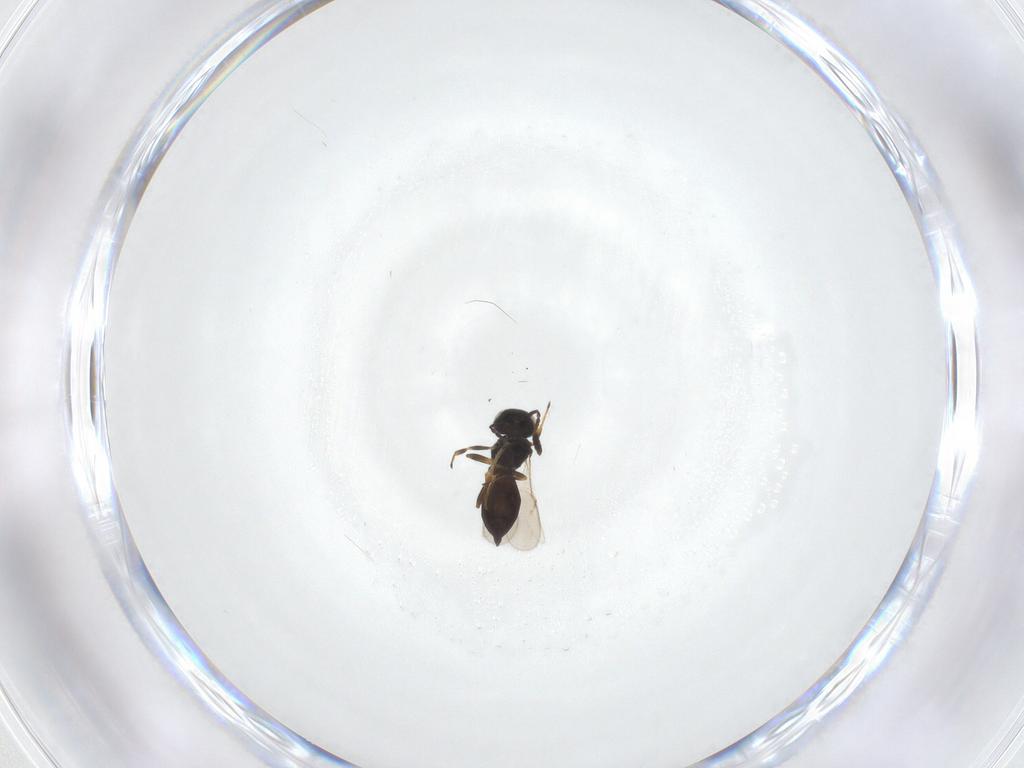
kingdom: Animalia
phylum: Arthropoda
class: Insecta
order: Hymenoptera
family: Scelionidae
